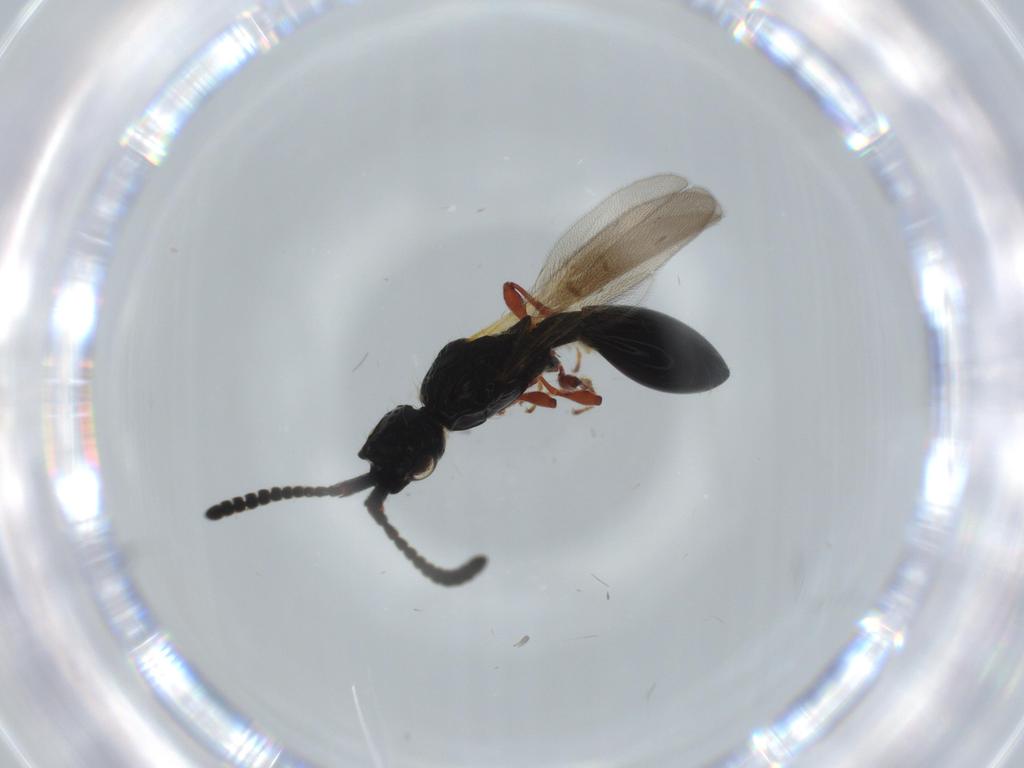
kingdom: Animalia
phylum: Arthropoda
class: Insecta
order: Hymenoptera
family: Diapriidae
